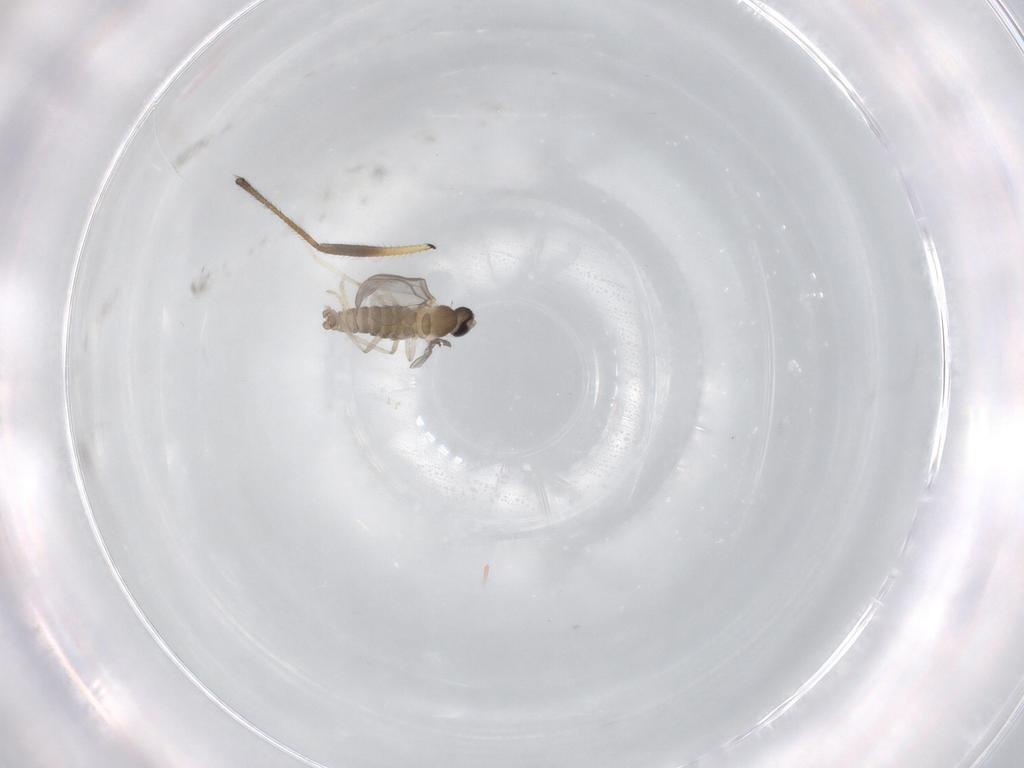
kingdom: Animalia
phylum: Arthropoda
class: Insecta
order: Diptera
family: Cecidomyiidae
